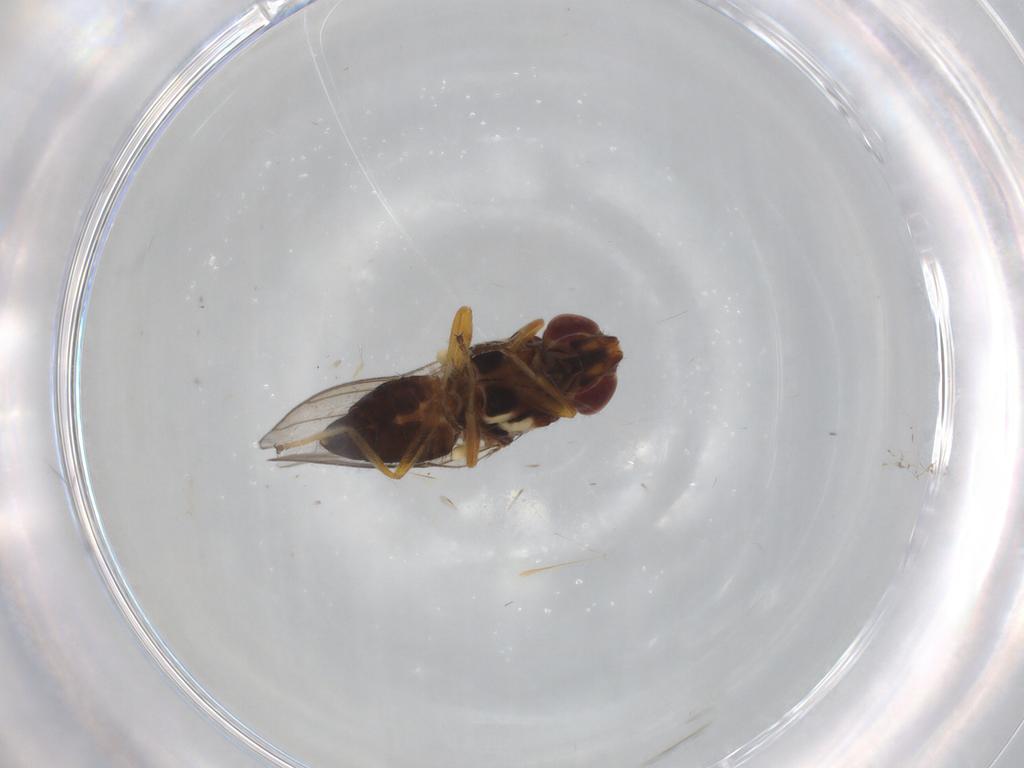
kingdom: Animalia
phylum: Arthropoda
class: Insecta
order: Diptera
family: Chloropidae
